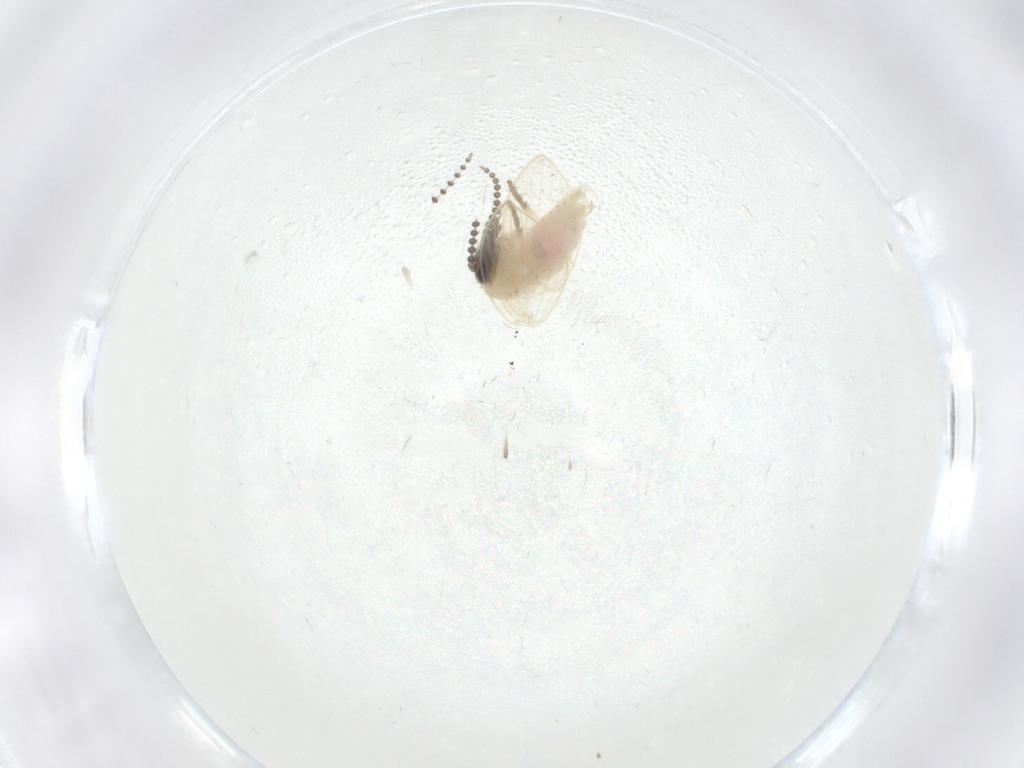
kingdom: Animalia
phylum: Arthropoda
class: Insecta
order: Diptera
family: Psychodidae
